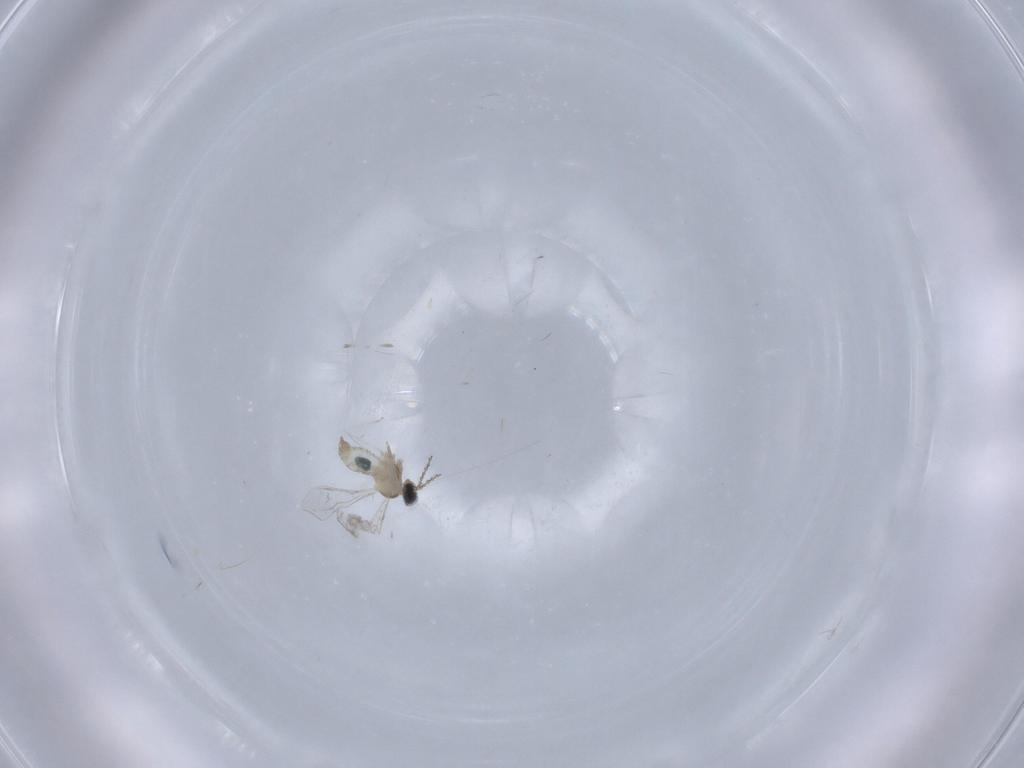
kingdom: Animalia
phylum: Arthropoda
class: Insecta
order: Diptera
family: Cecidomyiidae
